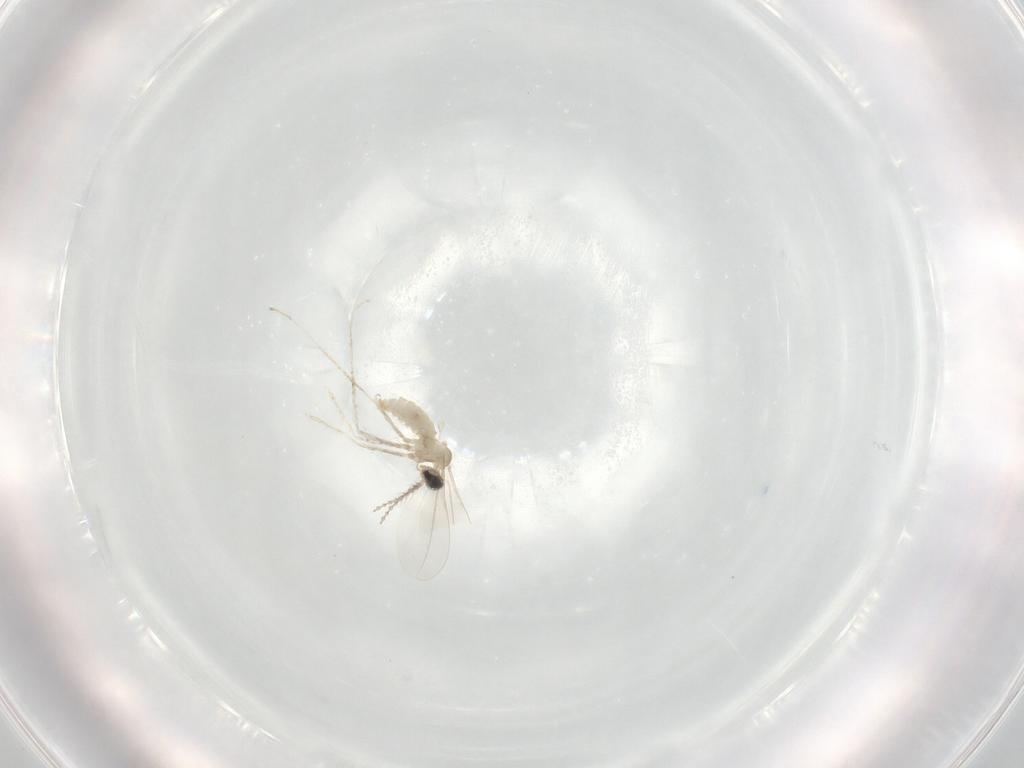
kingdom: Animalia
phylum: Arthropoda
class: Insecta
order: Diptera
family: Cecidomyiidae
